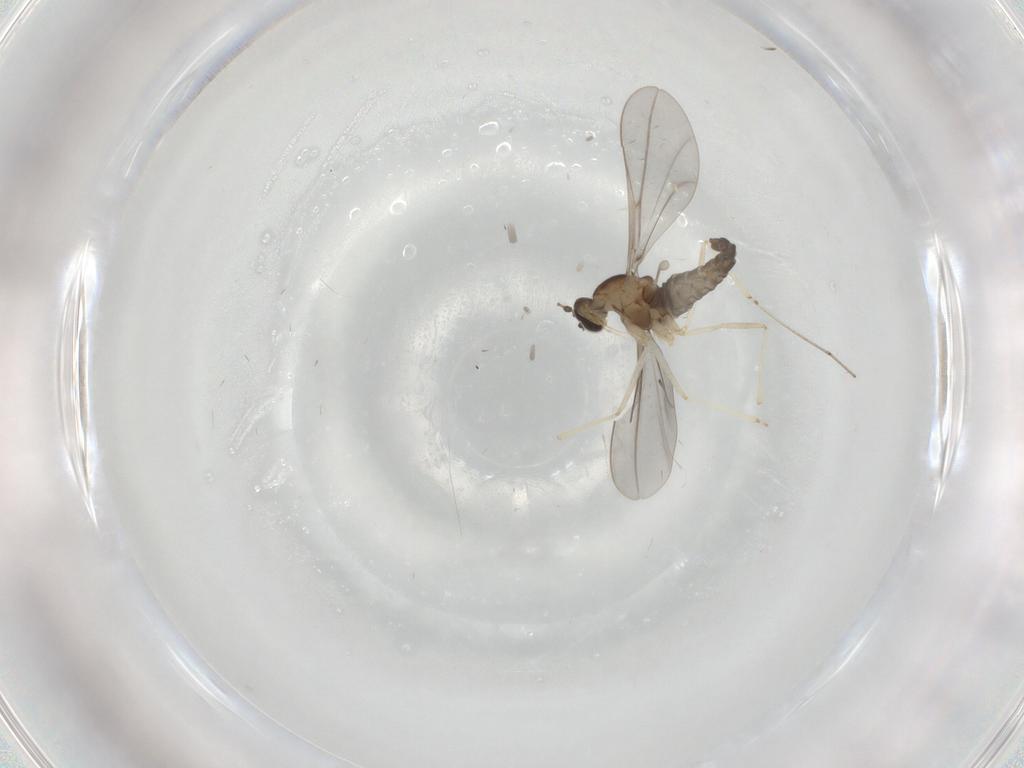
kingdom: Animalia
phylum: Arthropoda
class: Insecta
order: Diptera
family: Cecidomyiidae
